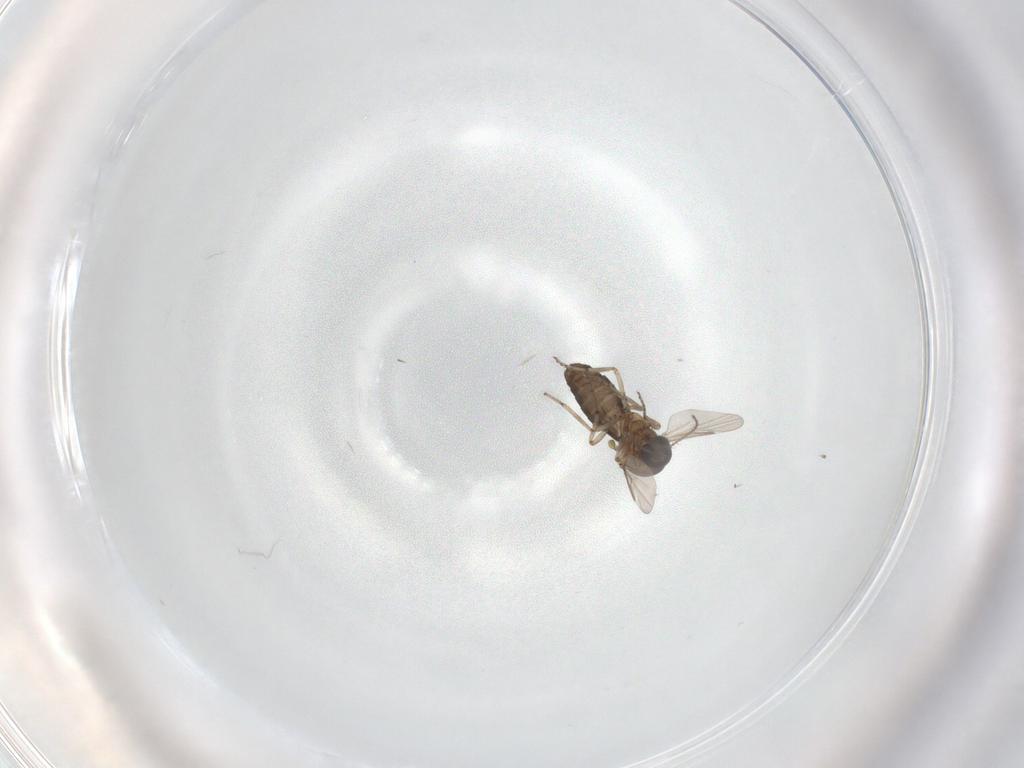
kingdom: Animalia
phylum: Arthropoda
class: Insecta
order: Diptera
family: Ceratopogonidae
